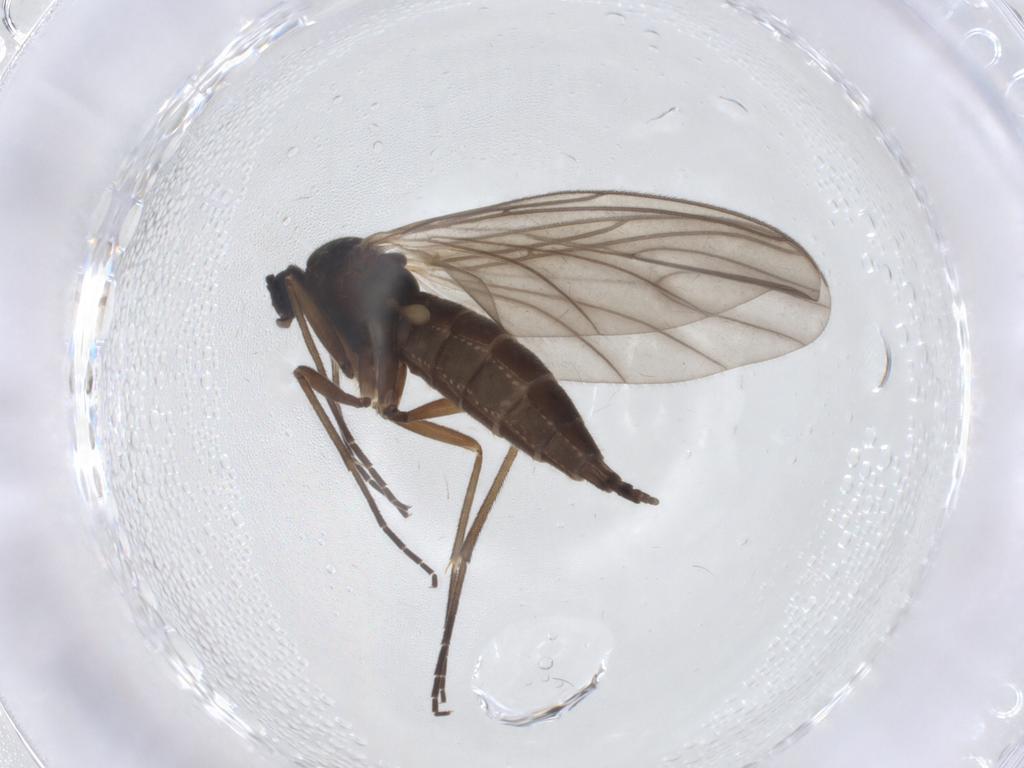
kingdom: Animalia
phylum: Arthropoda
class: Insecta
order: Diptera
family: Sciaridae
